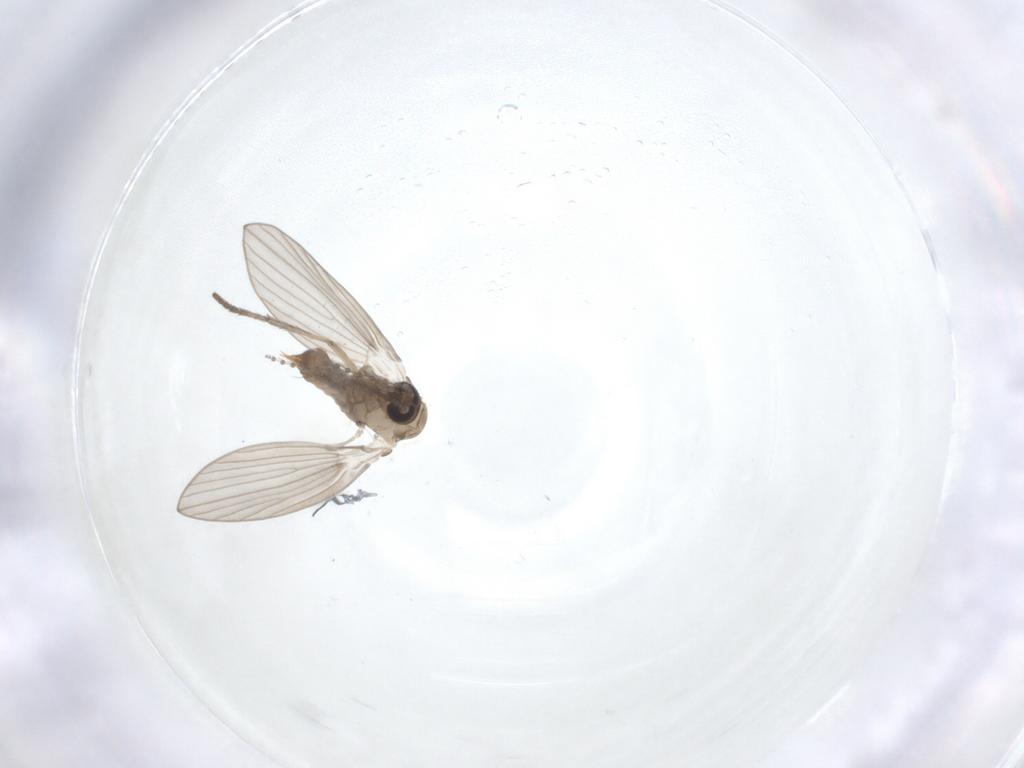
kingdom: Animalia
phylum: Arthropoda
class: Insecta
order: Diptera
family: Psychodidae
